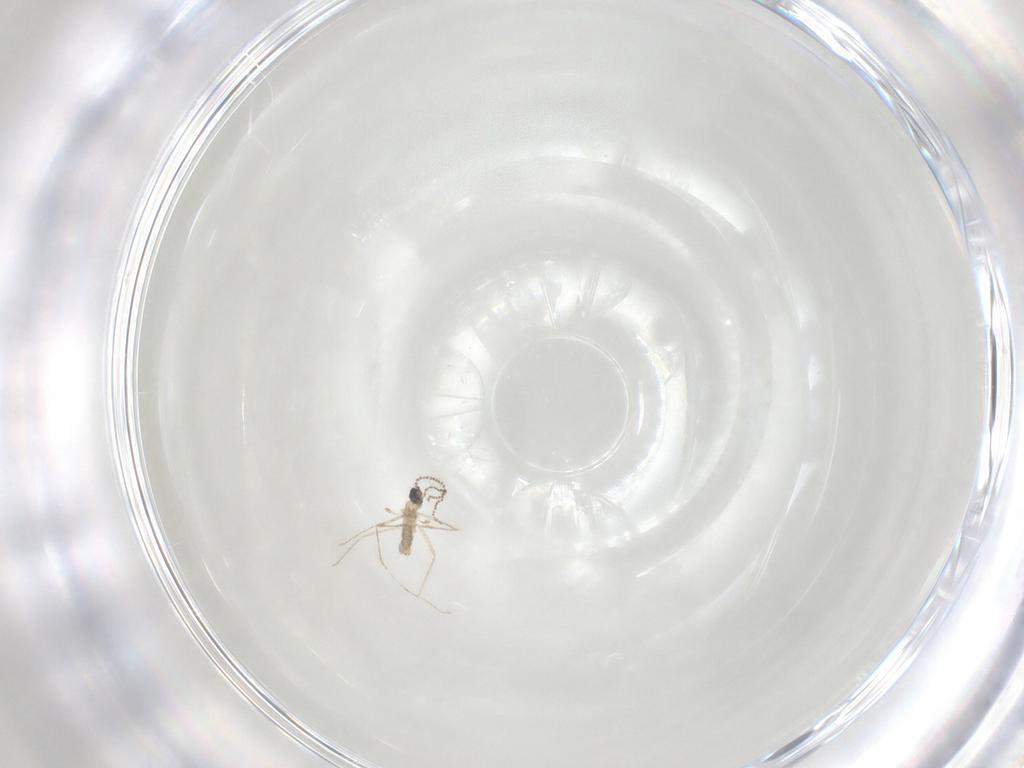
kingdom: Animalia
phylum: Arthropoda
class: Insecta
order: Diptera
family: Cecidomyiidae
